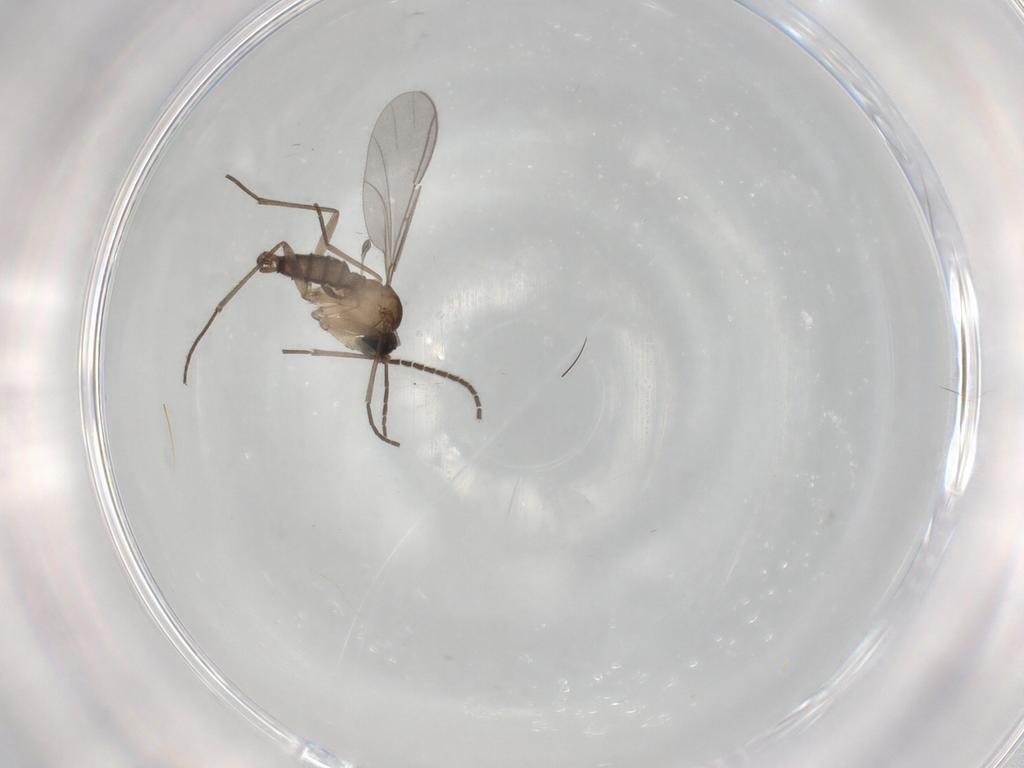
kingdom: Animalia
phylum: Arthropoda
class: Insecta
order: Diptera
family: Sciaridae
